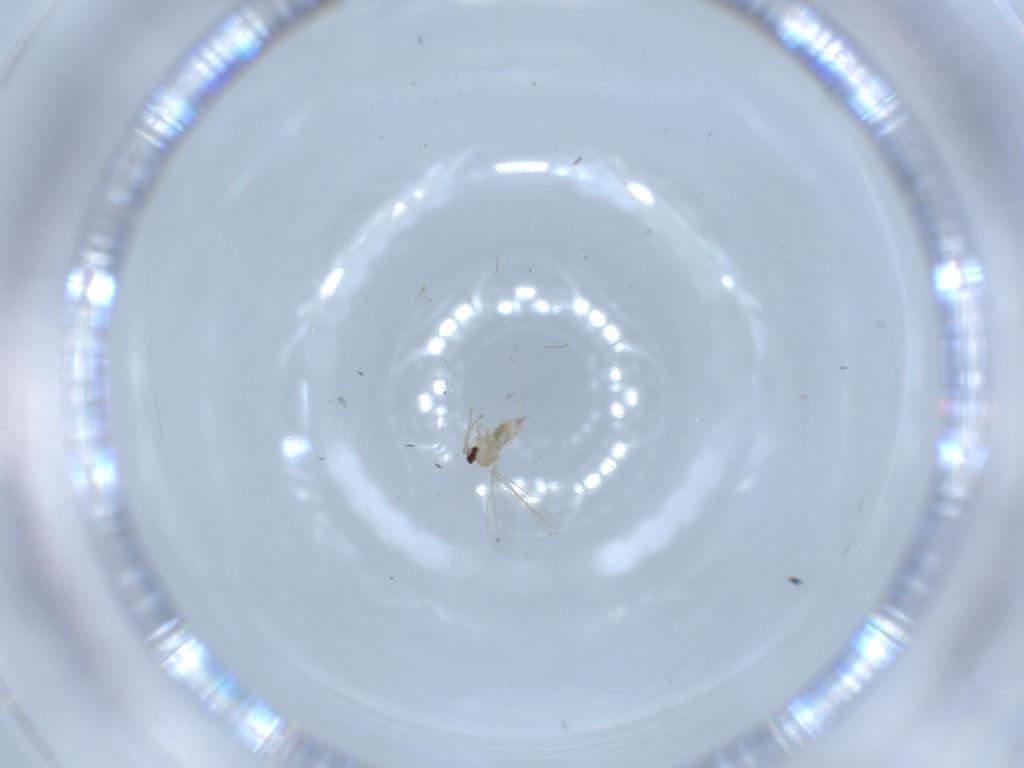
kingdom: Animalia
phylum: Arthropoda
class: Insecta
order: Diptera
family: Cecidomyiidae
